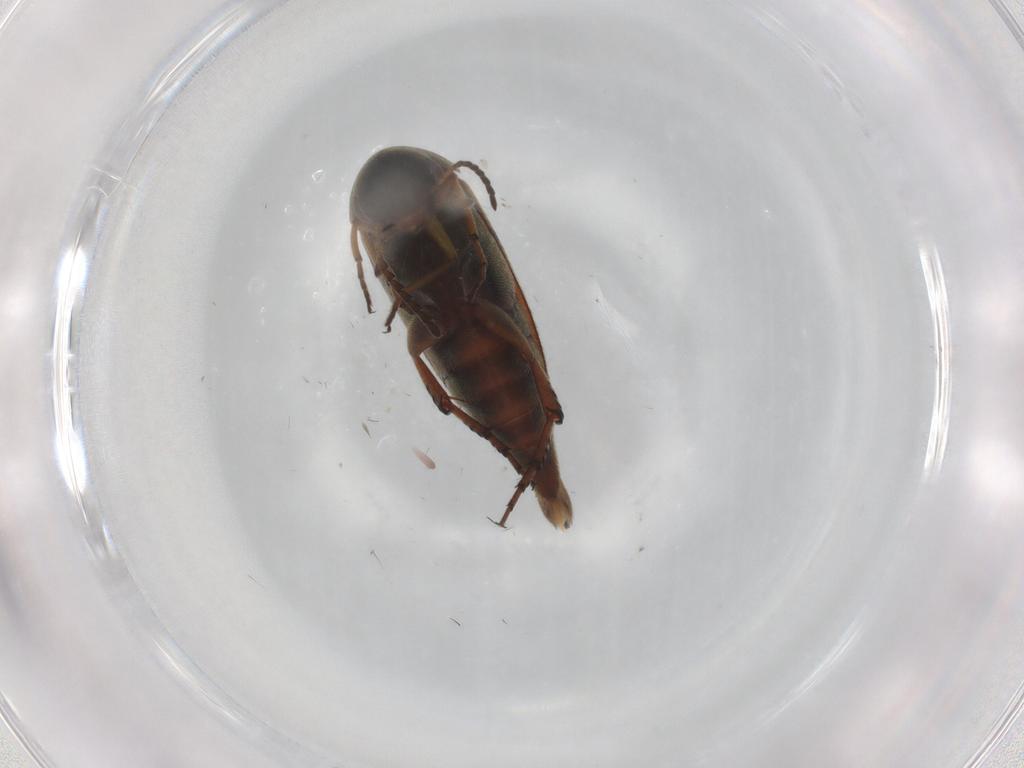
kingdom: Animalia
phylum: Arthropoda
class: Insecta
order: Coleoptera
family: Mordellidae
